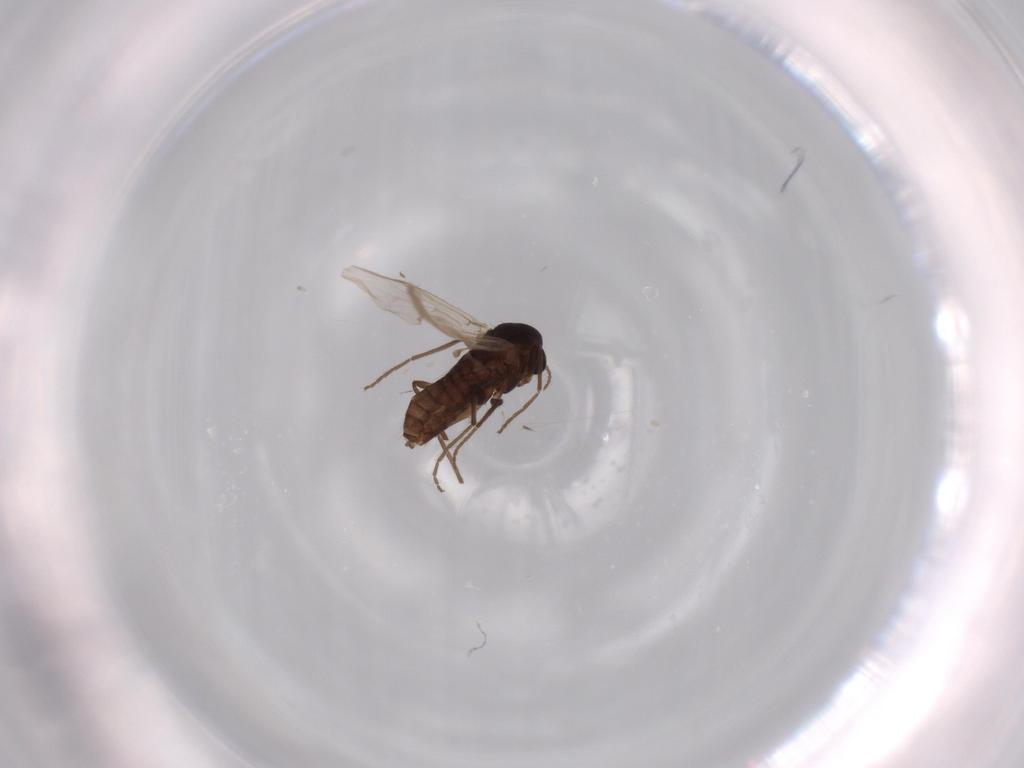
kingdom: Animalia
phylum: Arthropoda
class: Insecta
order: Diptera
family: Chironomidae
